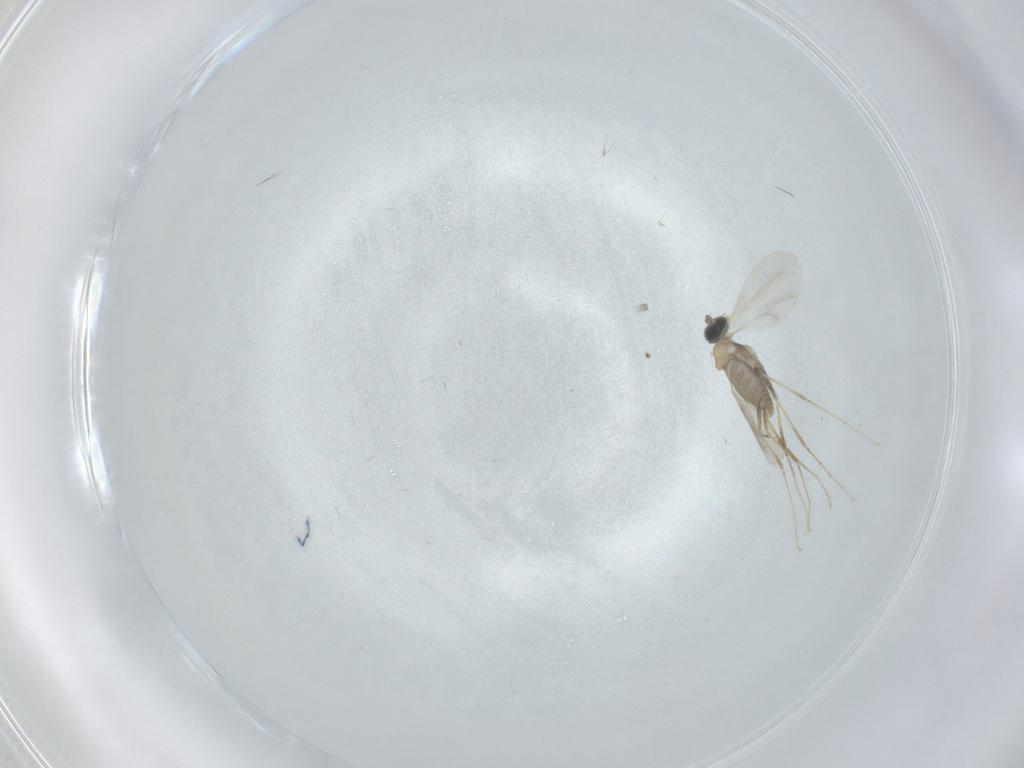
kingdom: Animalia
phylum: Arthropoda
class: Insecta
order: Diptera
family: Cecidomyiidae
